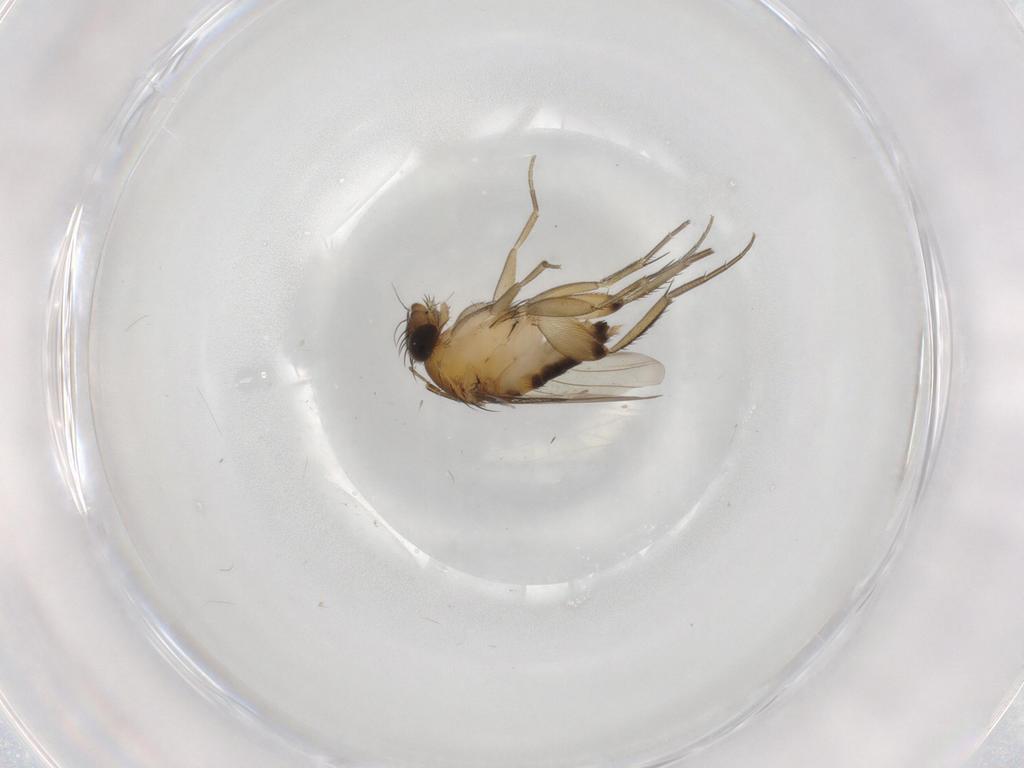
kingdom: Animalia
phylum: Arthropoda
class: Insecta
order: Diptera
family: Phoridae
